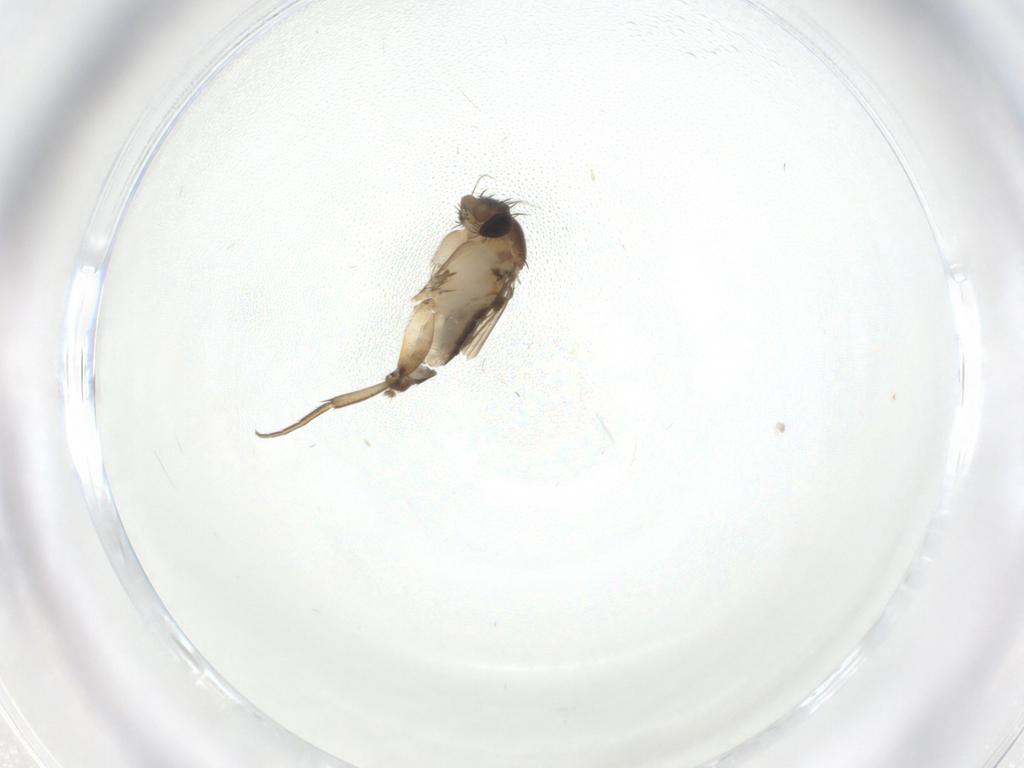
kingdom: Animalia
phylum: Arthropoda
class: Insecta
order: Diptera
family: Phoridae
